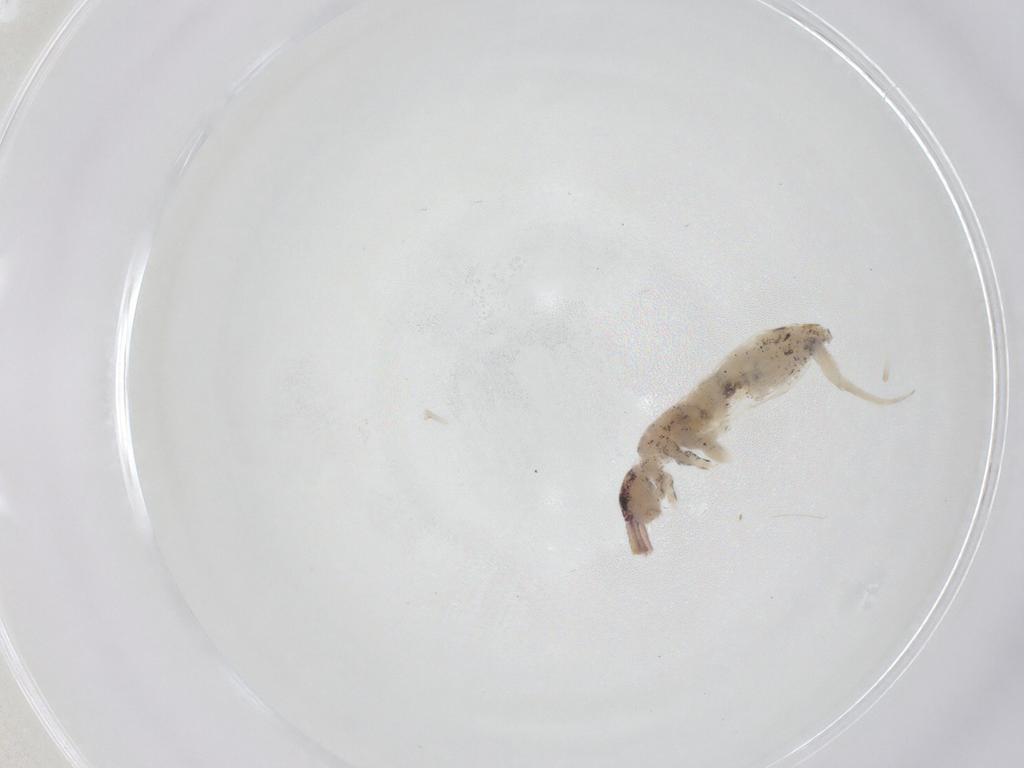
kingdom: Animalia
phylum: Arthropoda
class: Collembola
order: Entomobryomorpha
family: Entomobryidae
